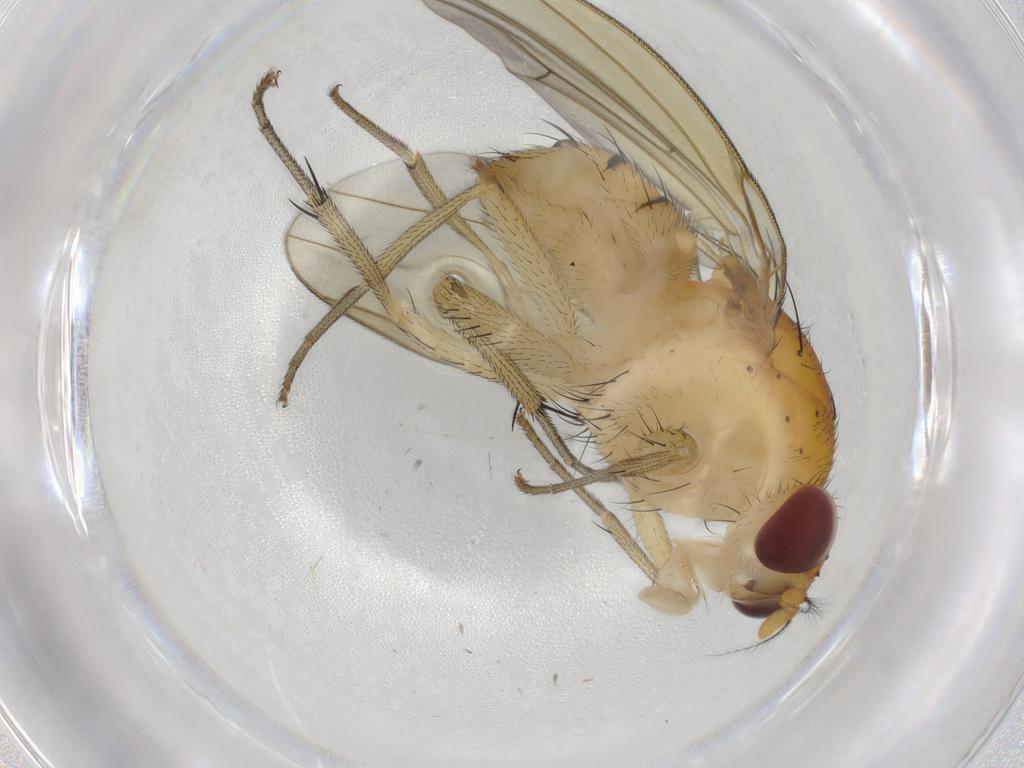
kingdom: Animalia
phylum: Arthropoda
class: Insecta
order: Diptera
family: Cecidomyiidae
